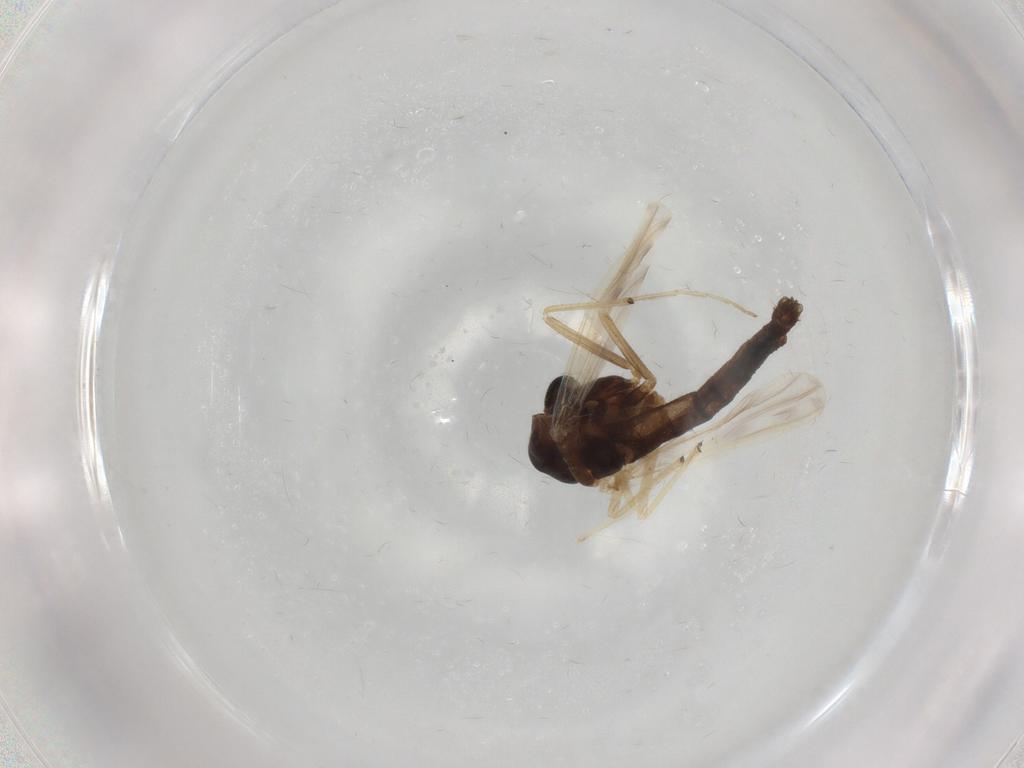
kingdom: Animalia
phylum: Arthropoda
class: Insecta
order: Diptera
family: Chironomidae
